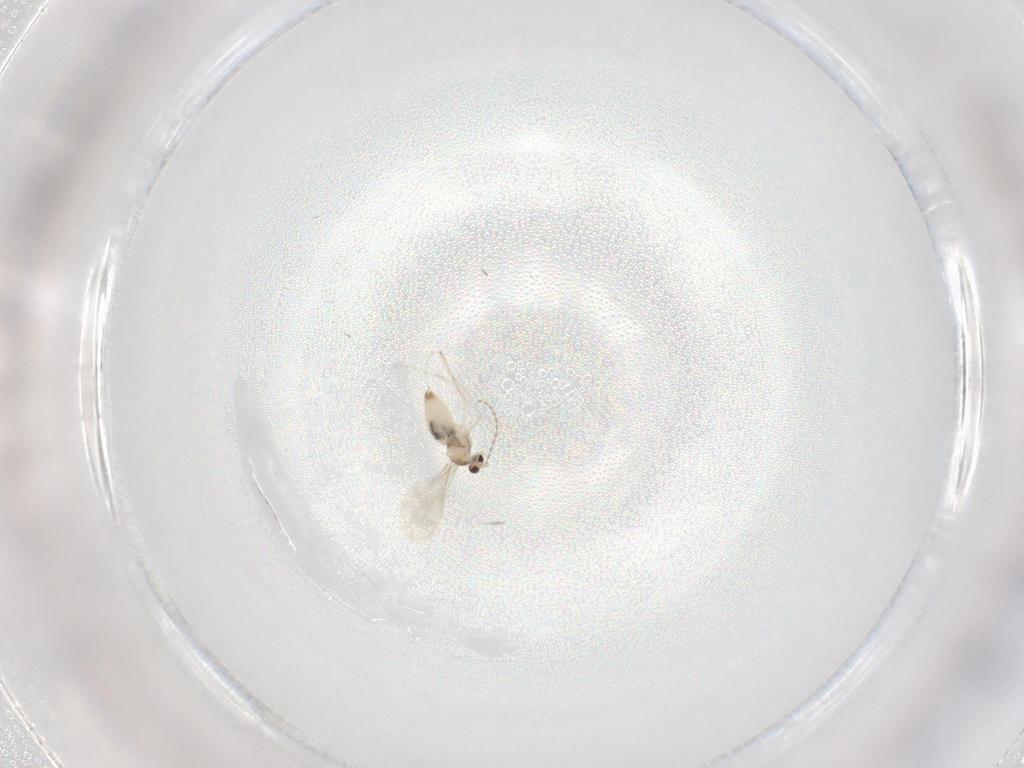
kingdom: Animalia
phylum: Arthropoda
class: Insecta
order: Diptera
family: Phoridae
